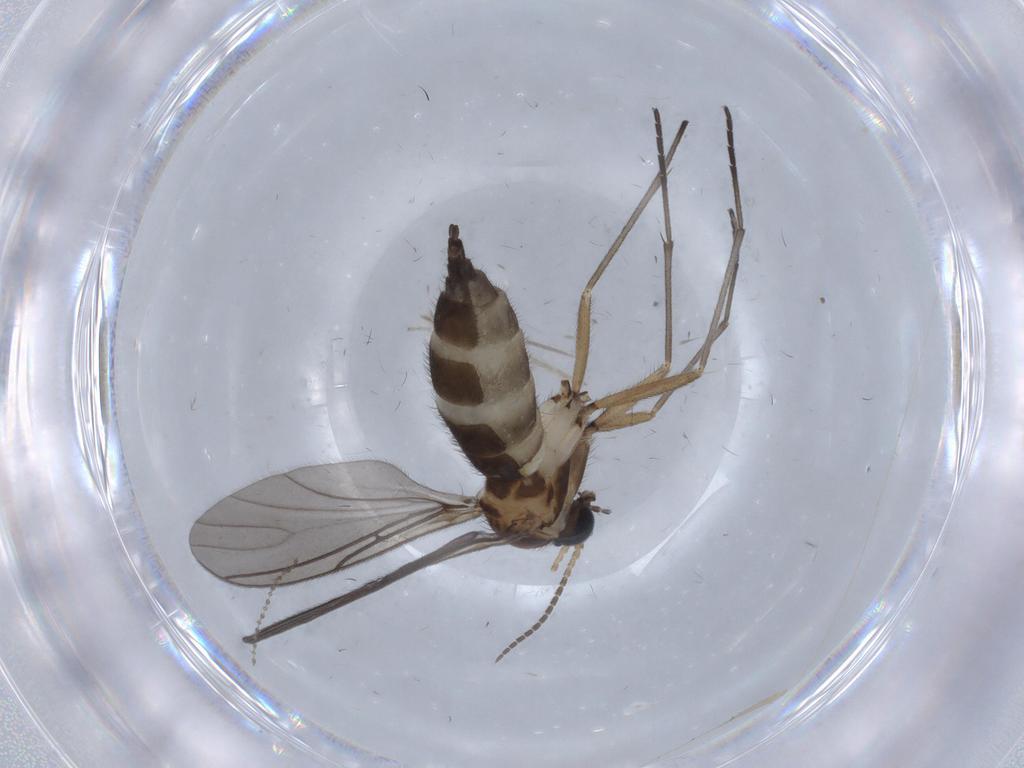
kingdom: Animalia
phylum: Arthropoda
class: Insecta
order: Diptera
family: Sciaridae
